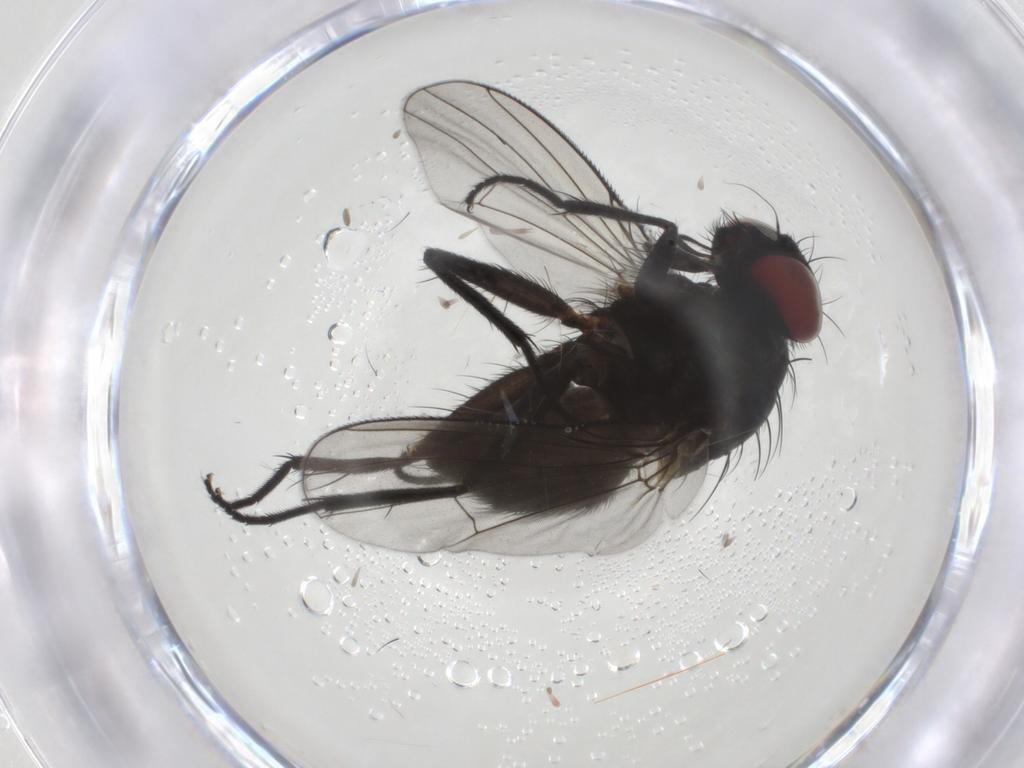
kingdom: Animalia
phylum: Arthropoda
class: Insecta
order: Diptera
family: Muscidae
